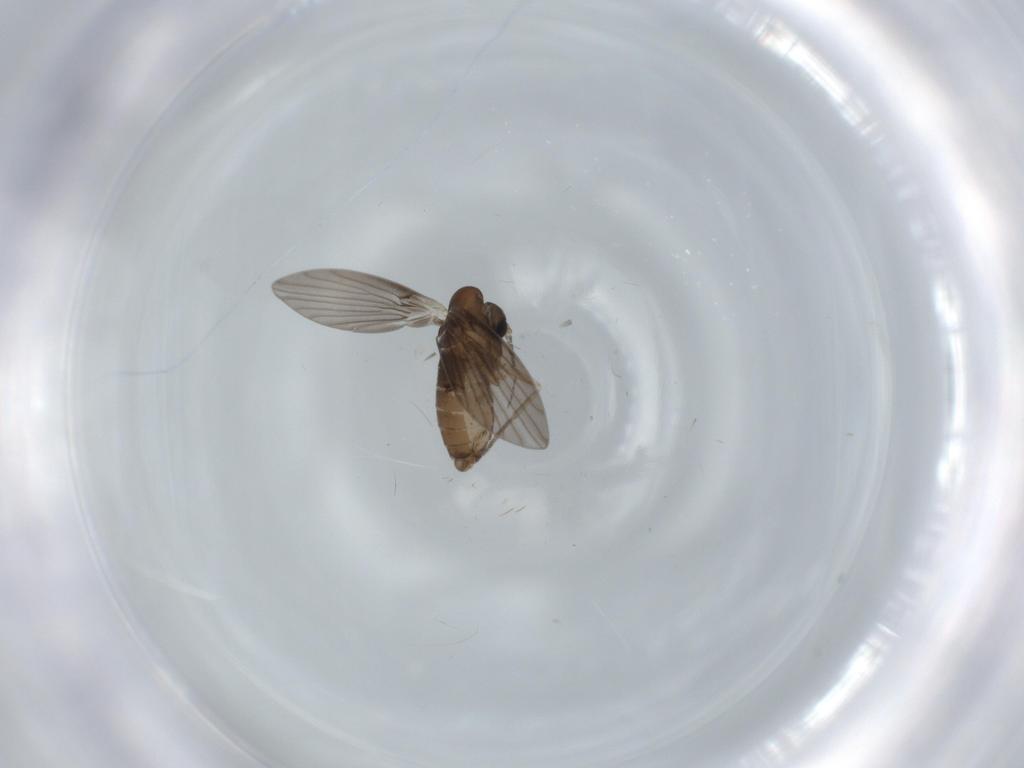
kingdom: Animalia
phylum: Arthropoda
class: Insecta
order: Diptera
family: Psychodidae
